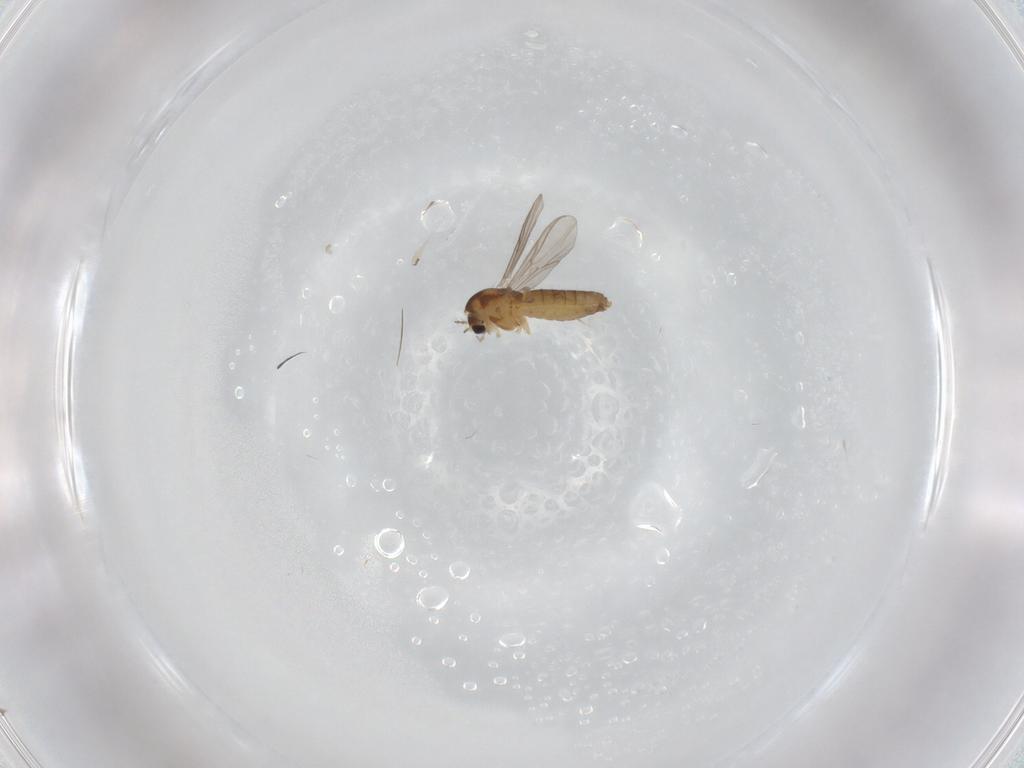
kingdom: Animalia
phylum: Arthropoda
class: Insecta
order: Diptera
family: Chironomidae
